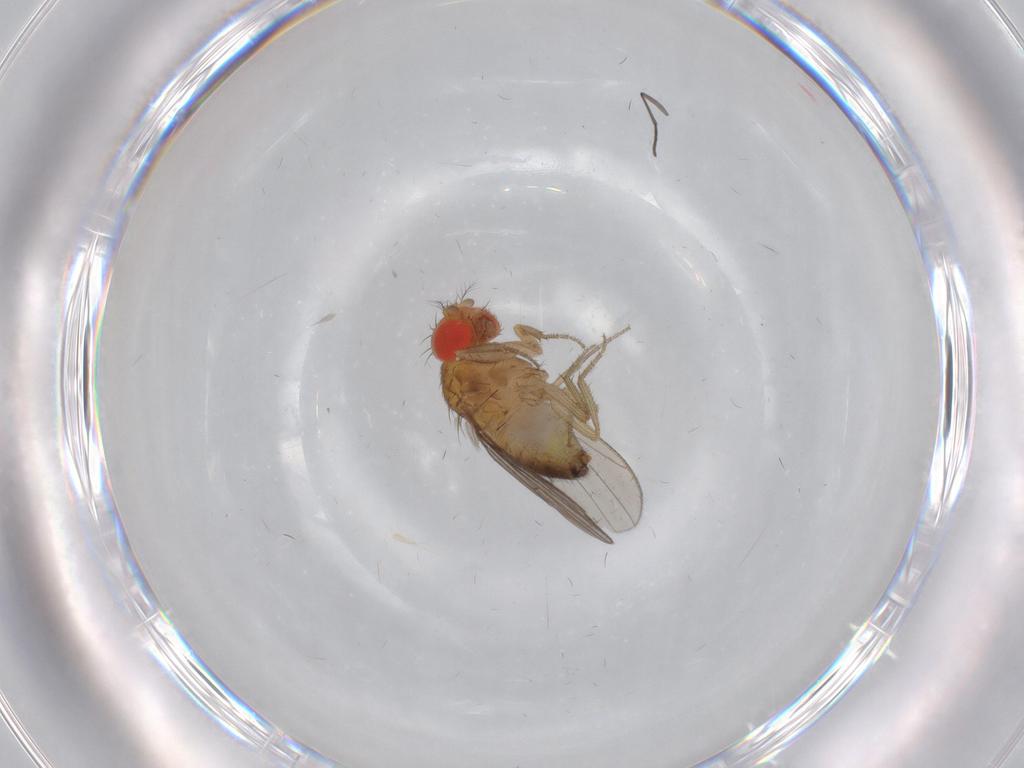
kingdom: Animalia
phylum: Arthropoda
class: Insecta
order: Diptera
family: Drosophilidae
